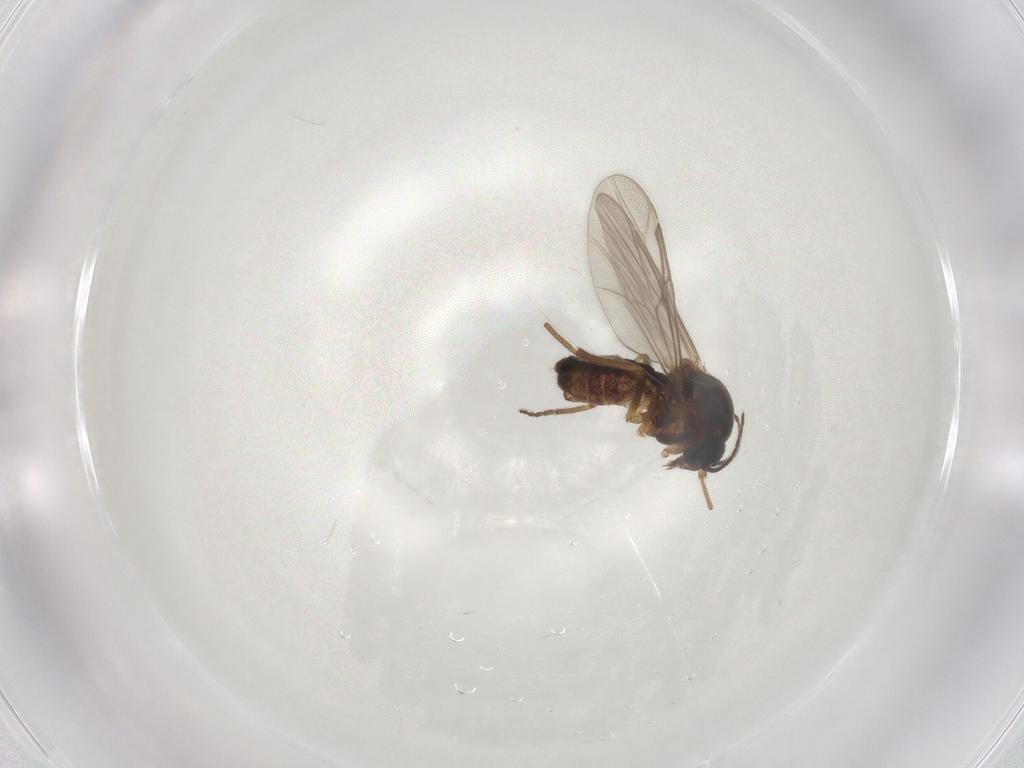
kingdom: Animalia
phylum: Arthropoda
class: Insecta
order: Diptera
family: Ceratopogonidae
